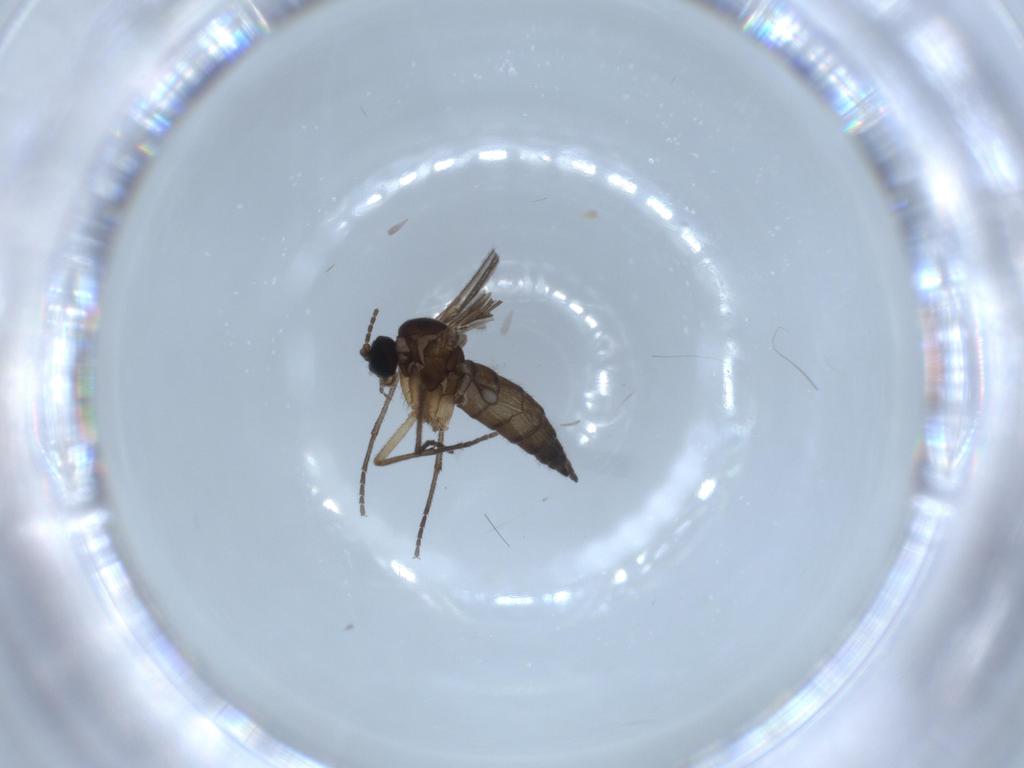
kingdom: Animalia
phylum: Arthropoda
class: Insecta
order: Diptera
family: Sciaridae
